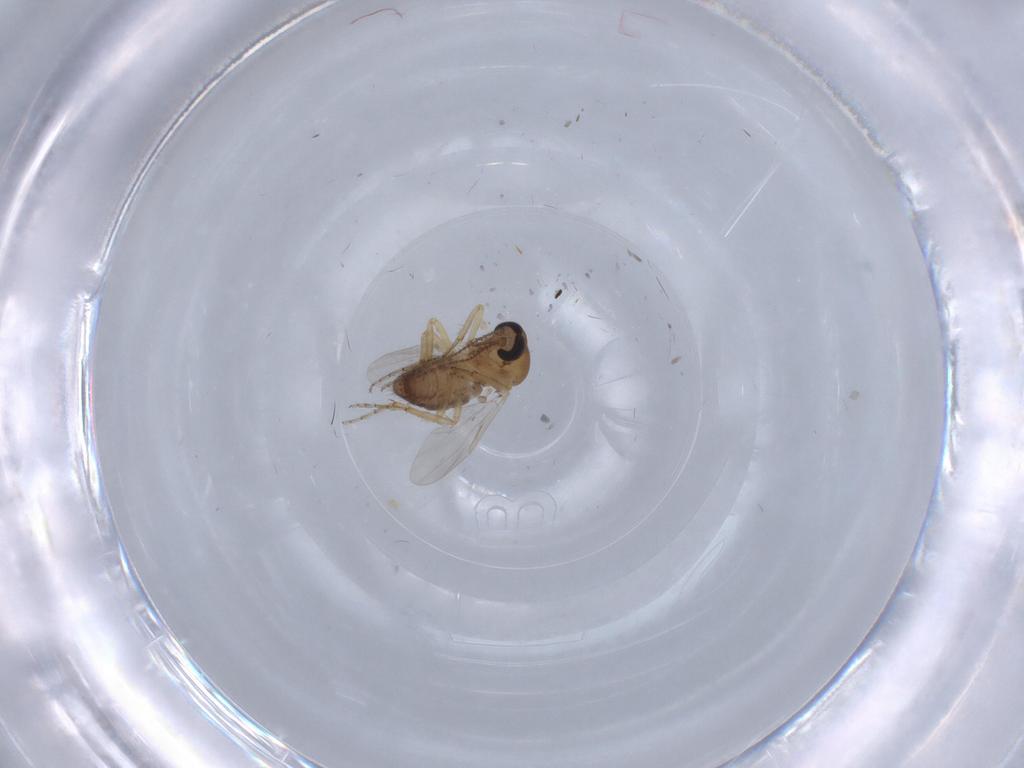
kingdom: Animalia
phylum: Arthropoda
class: Insecta
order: Diptera
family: Ceratopogonidae
